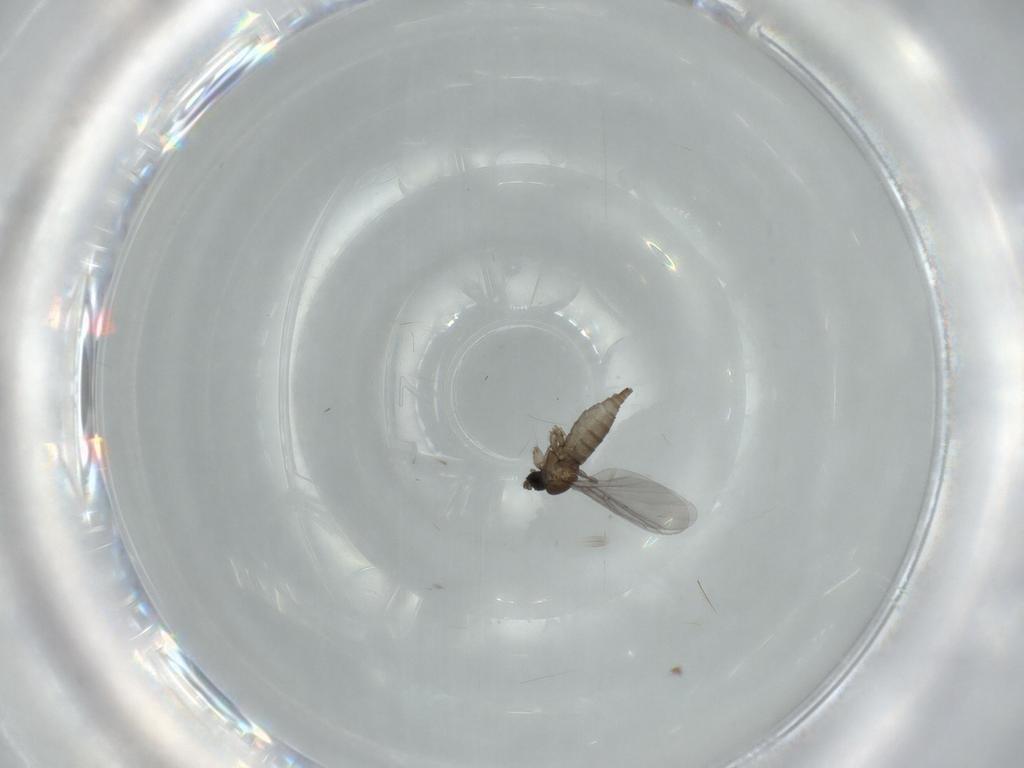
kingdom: Animalia
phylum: Arthropoda
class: Insecta
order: Diptera
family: Sciaridae
